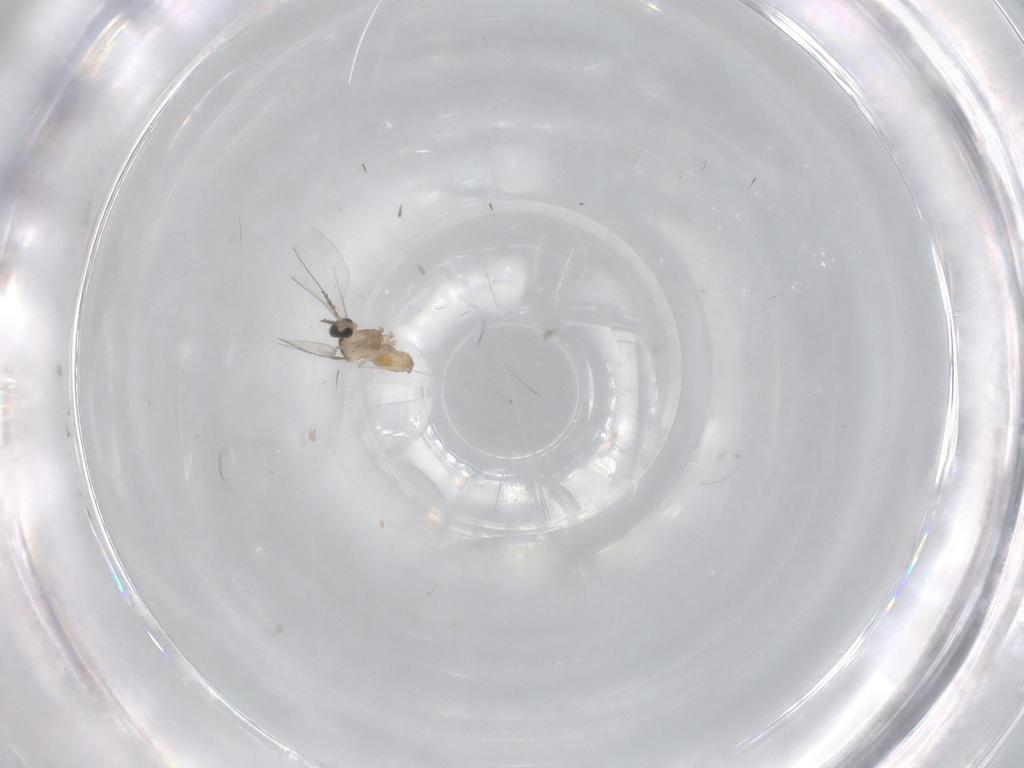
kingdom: Animalia
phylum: Arthropoda
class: Insecta
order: Diptera
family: Cecidomyiidae
